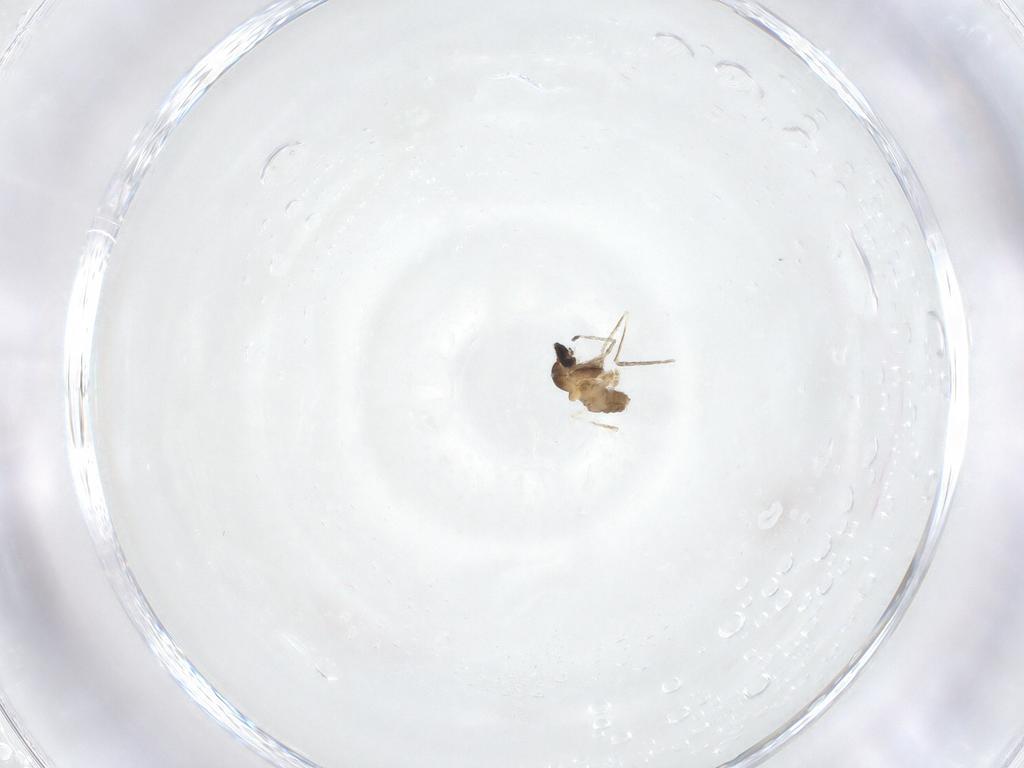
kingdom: Animalia
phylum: Arthropoda
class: Insecta
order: Diptera
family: Cecidomyiidae
